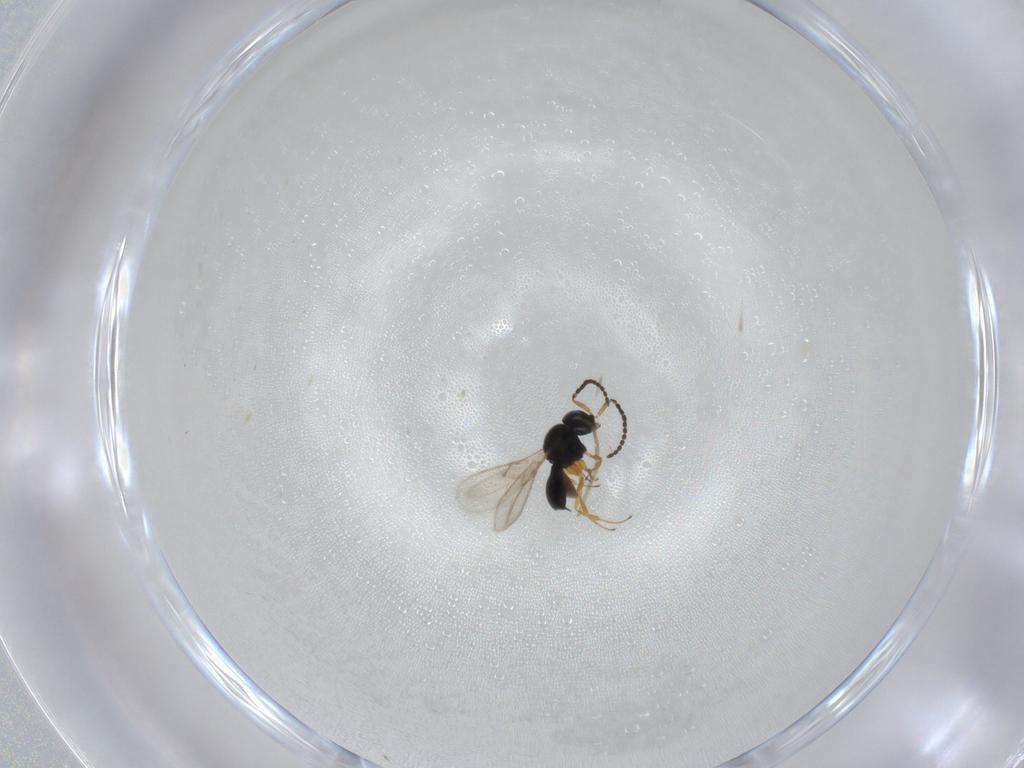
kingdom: Animalia
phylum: Arthropoda
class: Insecta
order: Hymenoptera
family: Scelionidae
